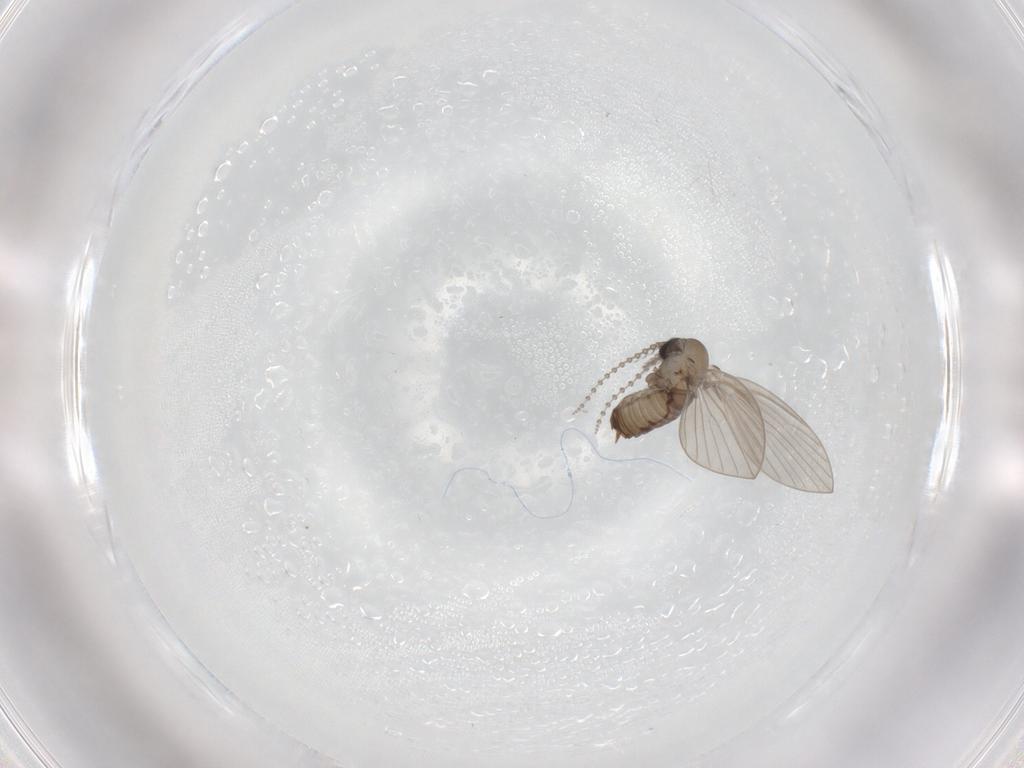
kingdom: Animalia
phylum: Arthropoda
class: Insecta
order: Diptera
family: Psychodidae
